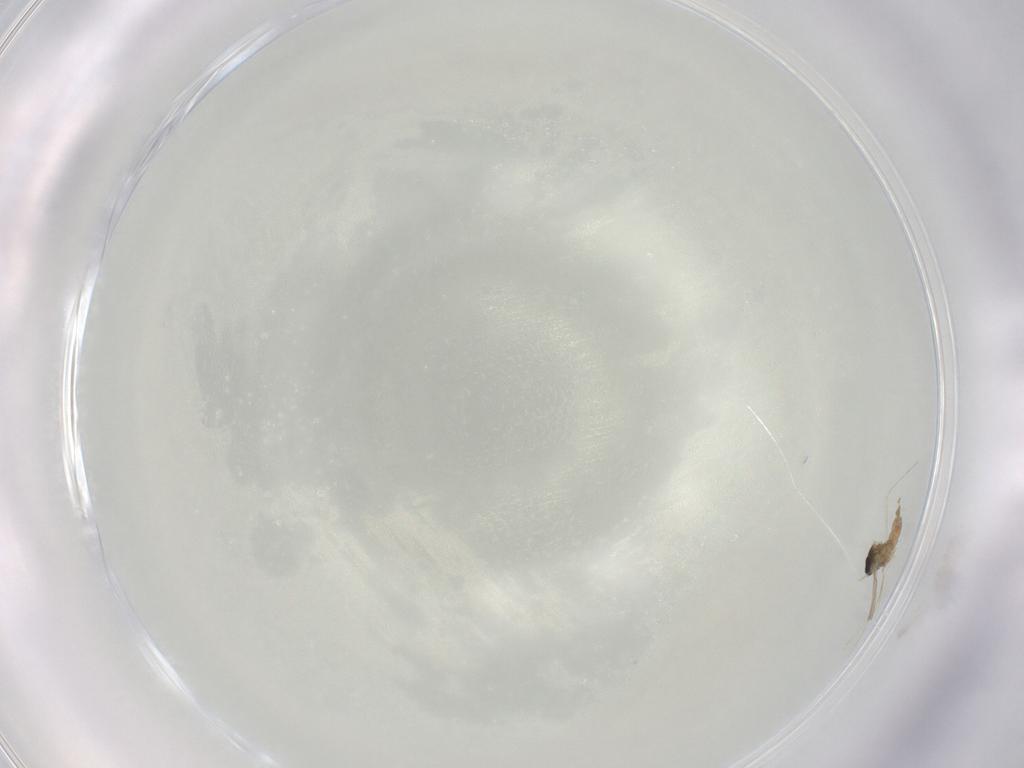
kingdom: Animalia
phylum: Arthropoda
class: Insecta
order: Diptera
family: Cecidomyiidae
